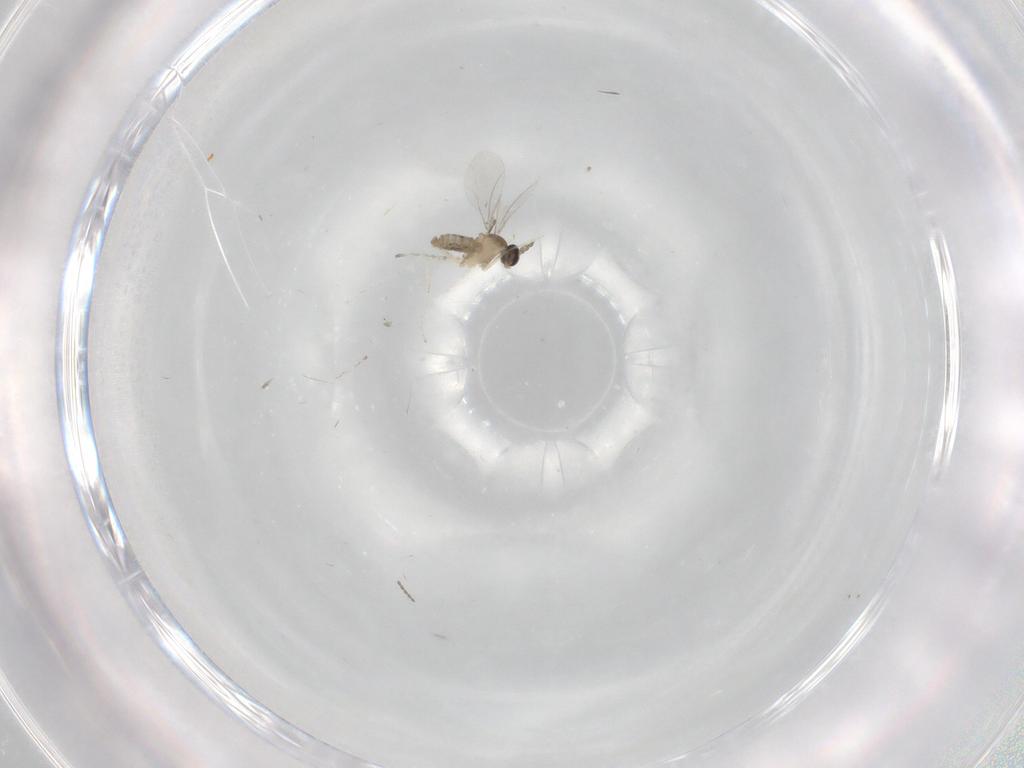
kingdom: Animalia
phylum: Arthropoda
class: Insecta
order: Diptera
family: Cecidomyiidae
